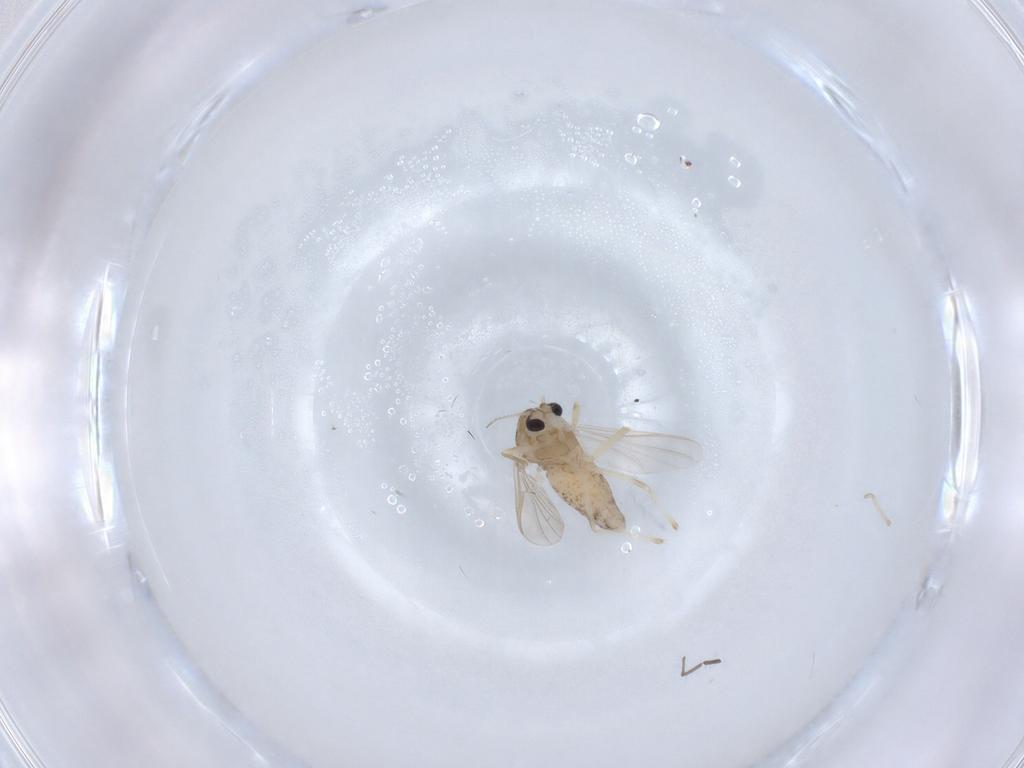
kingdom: Animalia
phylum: Arthropoda
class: Insecta
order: Diptera
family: Chironomidae
